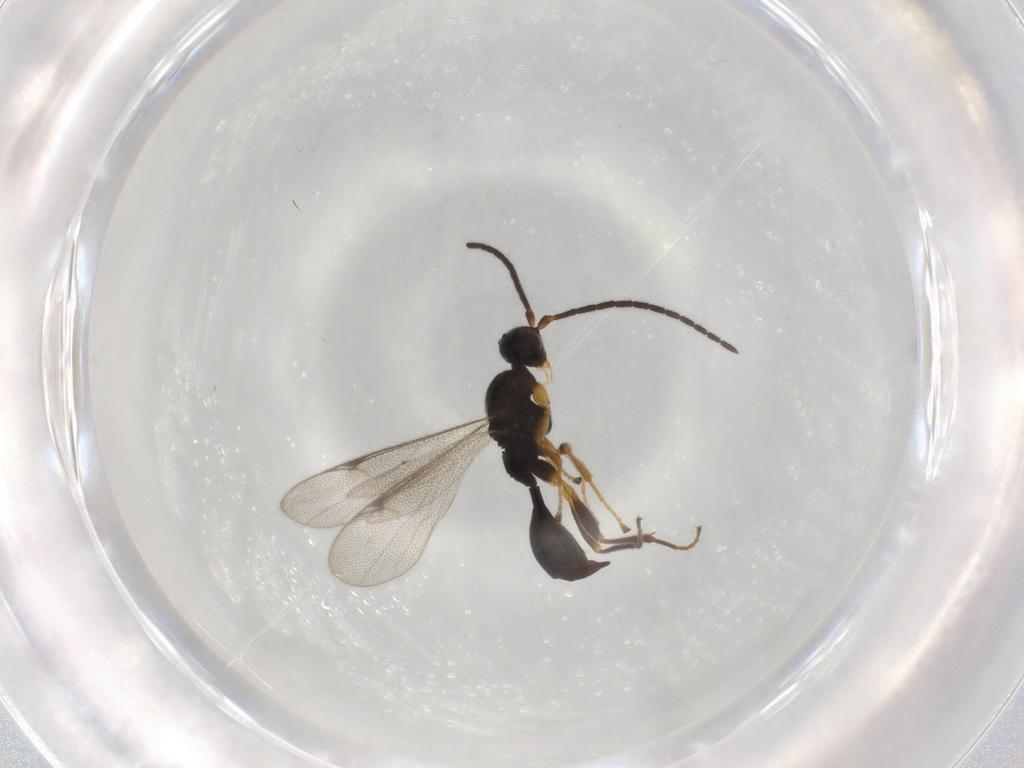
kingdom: Animalia
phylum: Arthropoda
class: Insecta
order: Hymenoptera
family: Proctotrupidae
